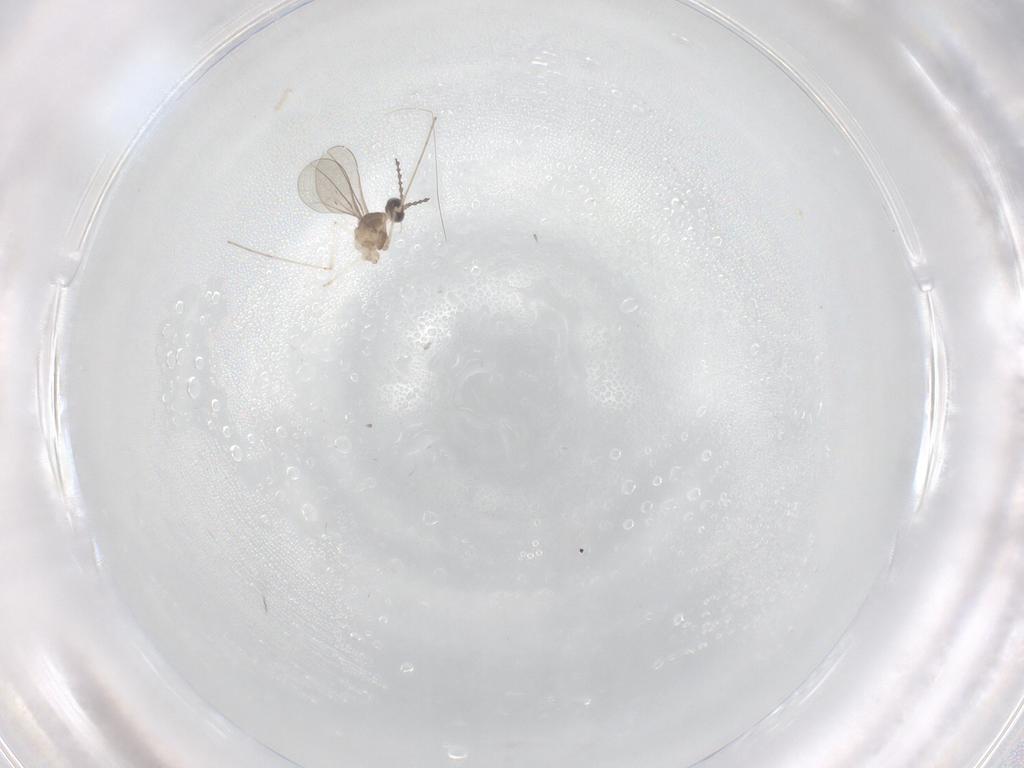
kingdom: Animalia
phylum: Arthropoda
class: Insecta
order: Diptera
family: Cecidomyiidae
